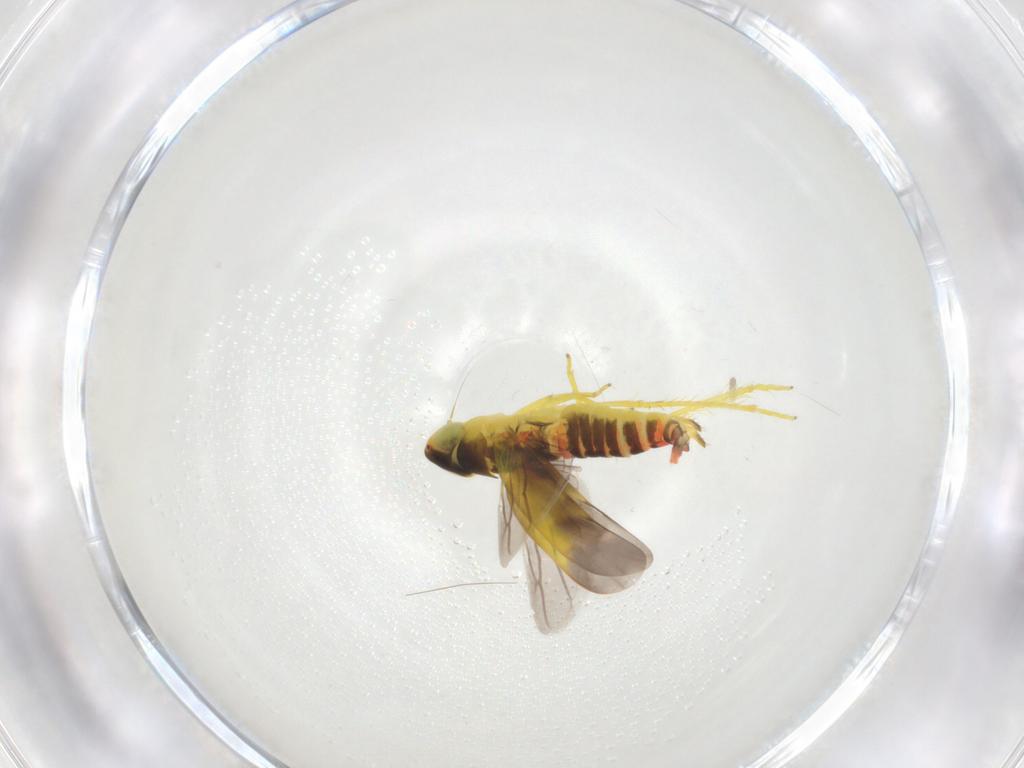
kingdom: Animalia
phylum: Arthropoda
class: Insecta
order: Hemiptera
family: Cicadellidae
